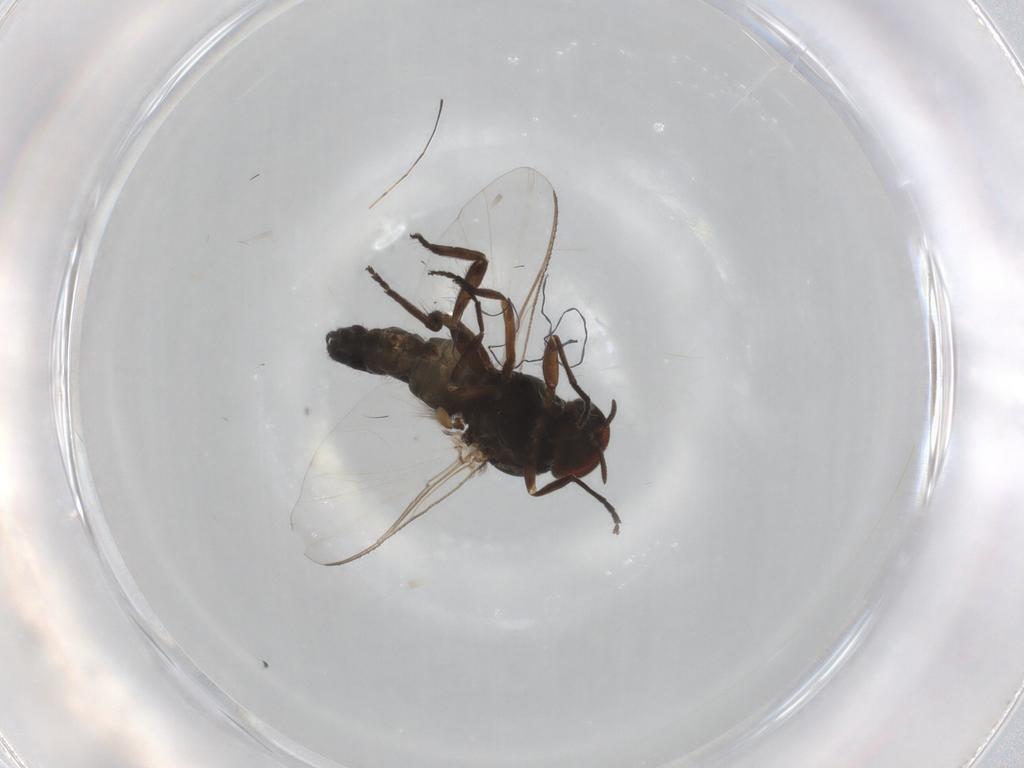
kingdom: Animalia
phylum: Arthropoda
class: Insecta
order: Diptera
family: Agromyzidae
